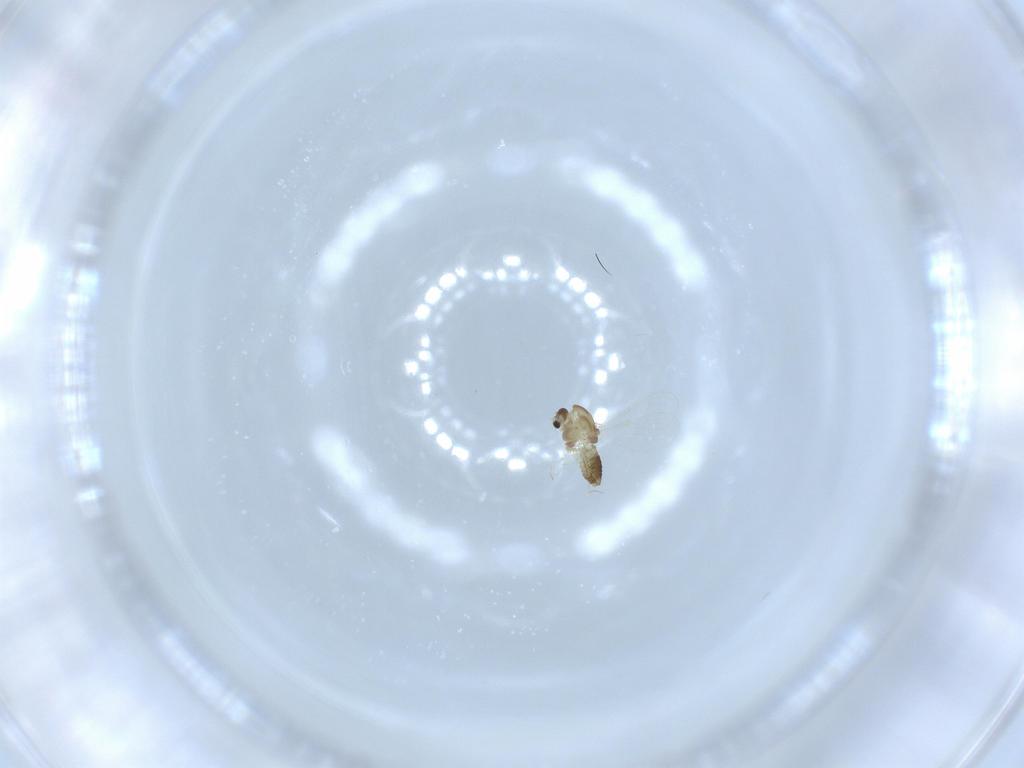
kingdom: Animalia
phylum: Arthropoda
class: Insecta
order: Diptera
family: Chironomidae
